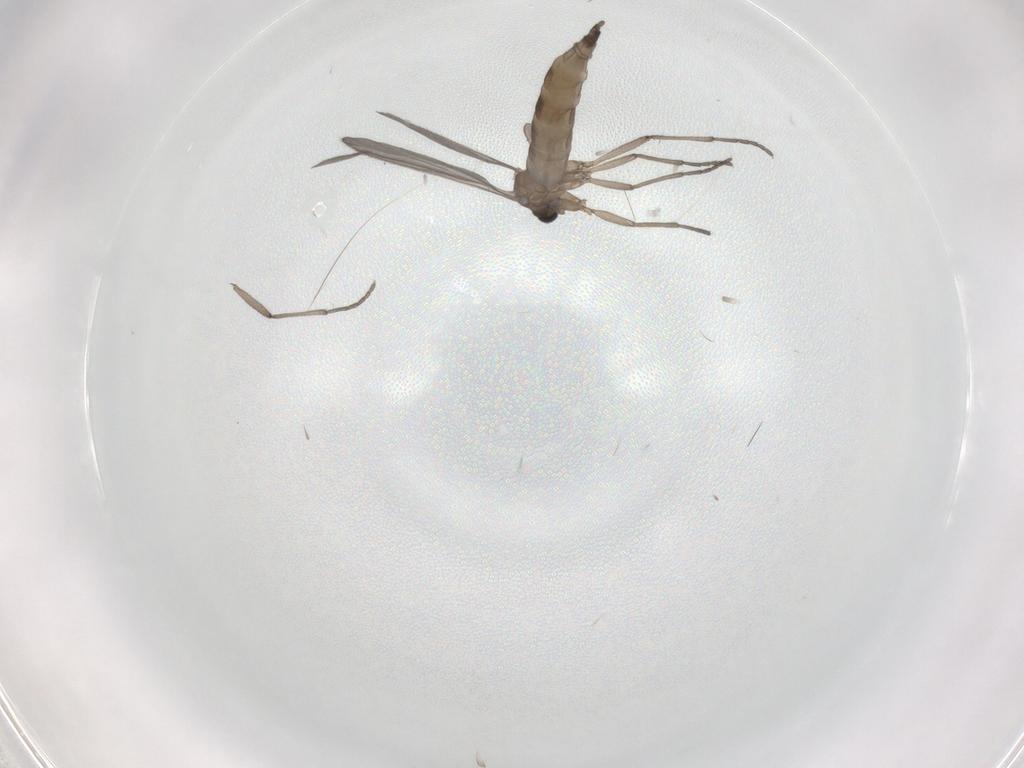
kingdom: Animalia
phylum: Arthropoda
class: Insecta
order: Diptera
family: Sciaridae
